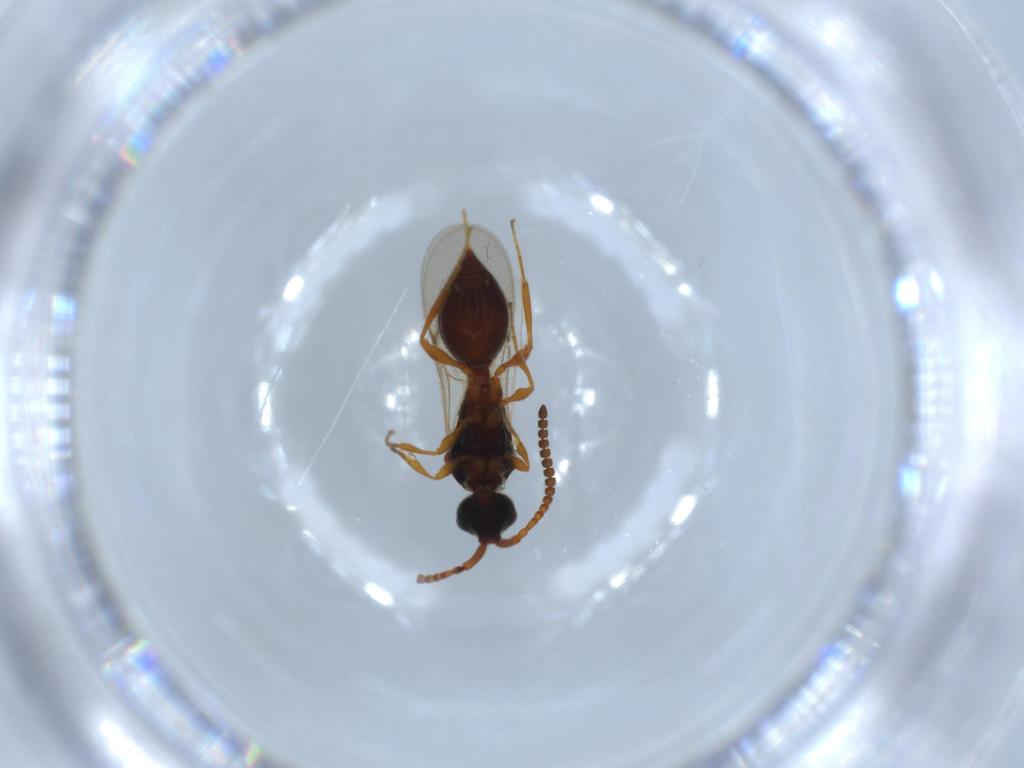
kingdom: Animalia
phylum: Arthropoda
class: Insecta
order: Hymenoptera
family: Diapriidae
